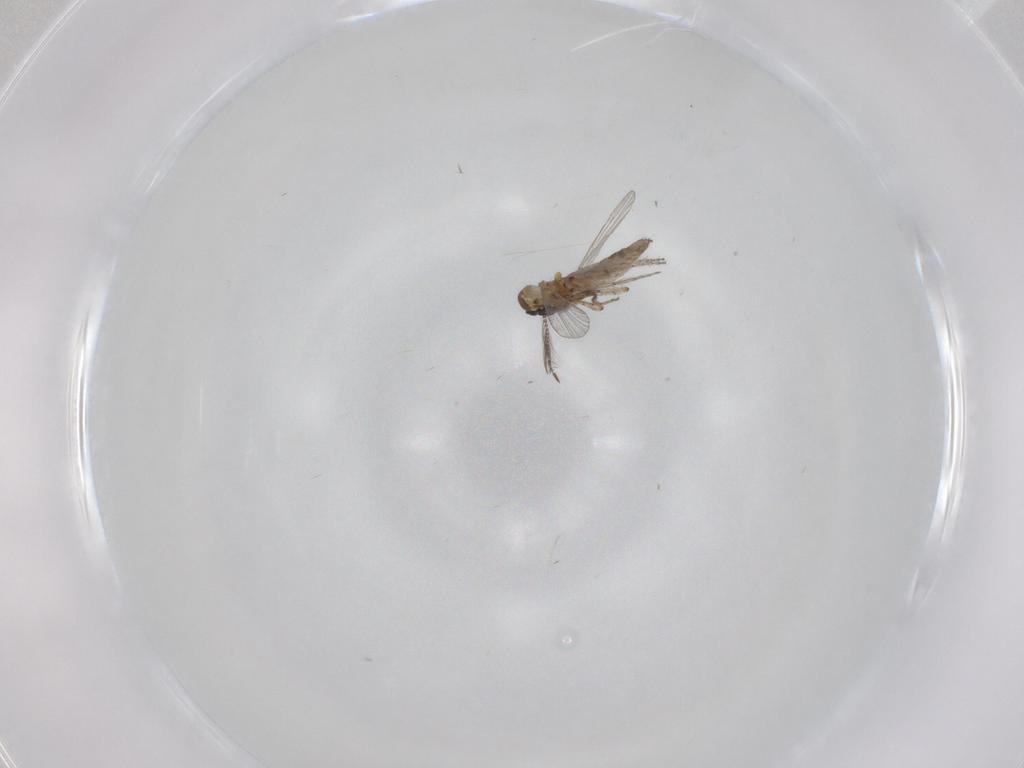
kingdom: Animalia
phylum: Arthropoda
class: Insecta
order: Diptera
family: Ceratopogonidae
